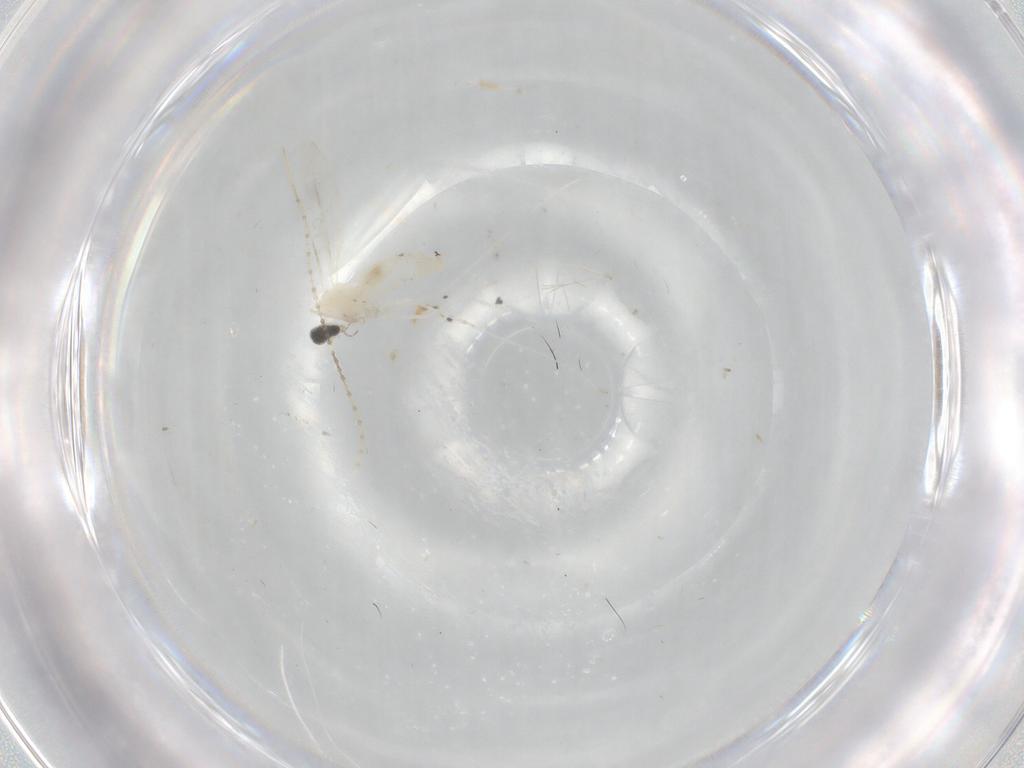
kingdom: Animalia
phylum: Arthropoda
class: Insecta
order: Diptera
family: Cecidomyiidae
